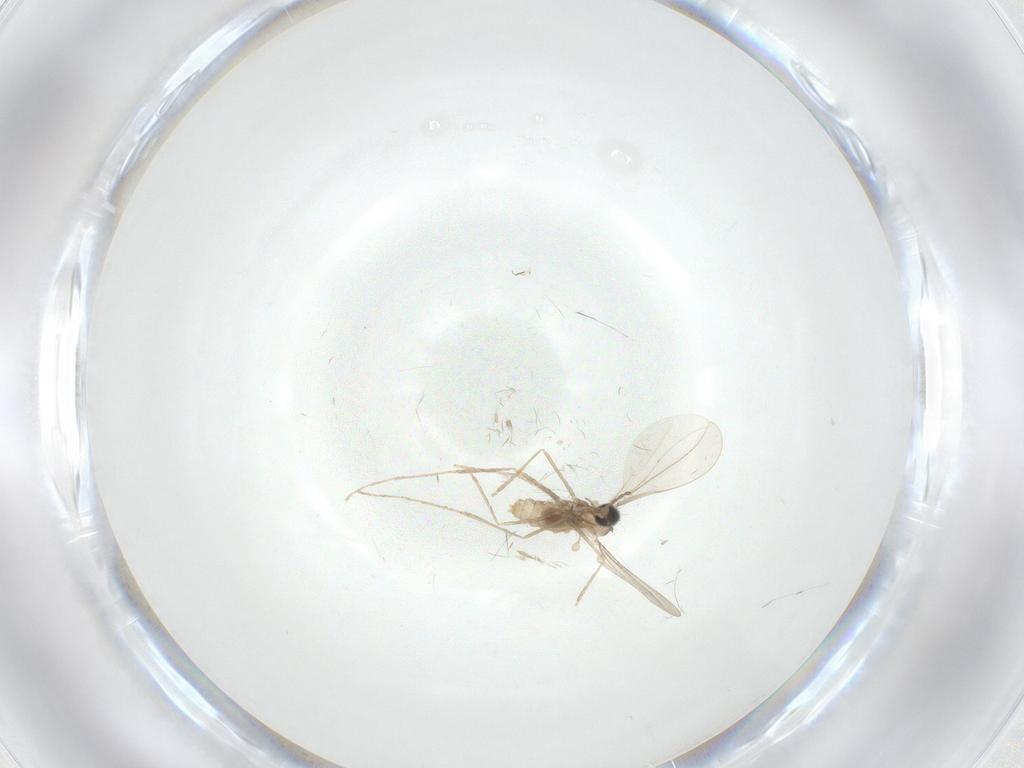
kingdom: Animalia
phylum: Arthropoda
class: Insecta
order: Diptera
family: Cecidomyiidae
